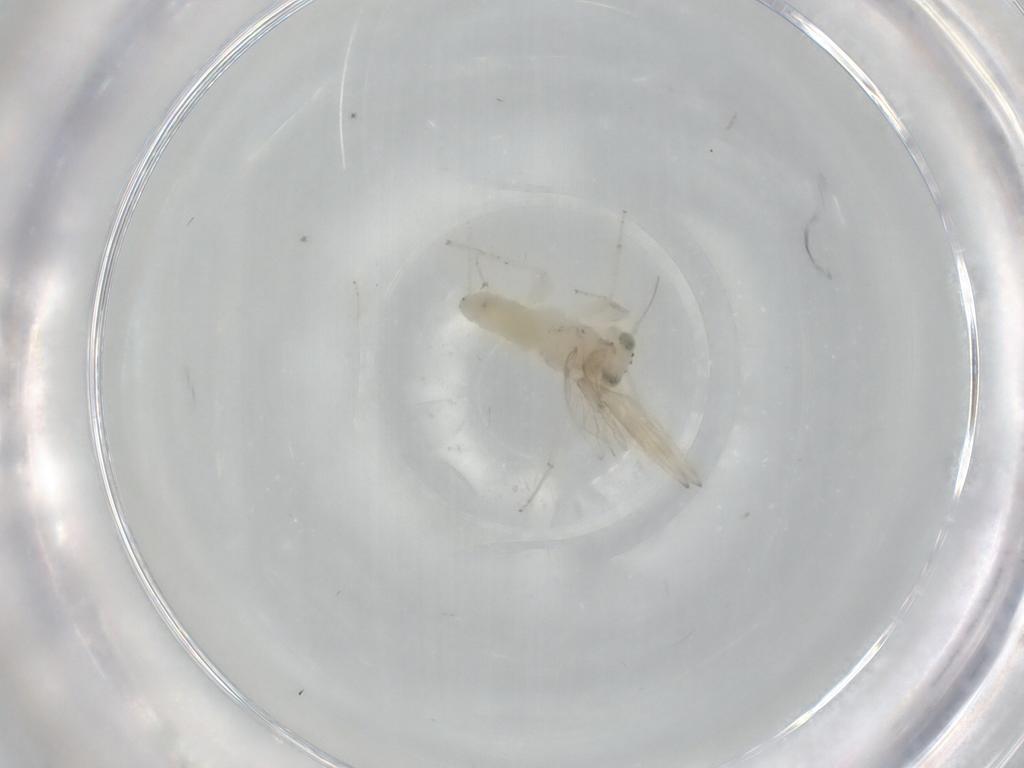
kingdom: Animalia
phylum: Arthropoda
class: Insecta
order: Psocodea
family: Lepidopsocidae
